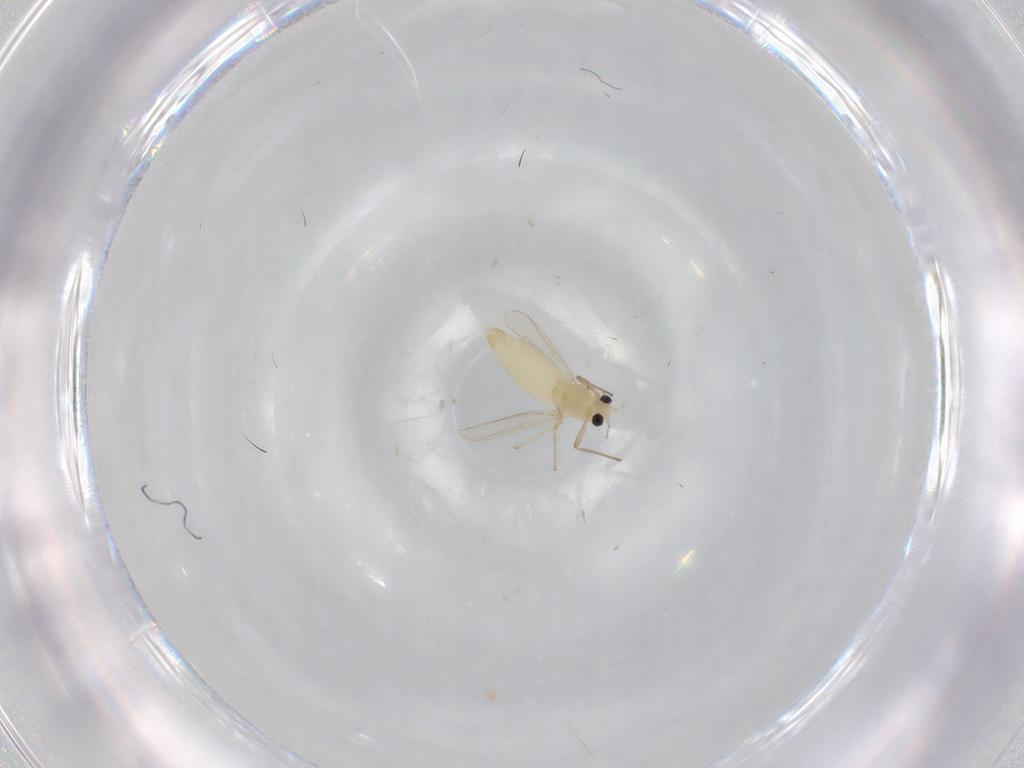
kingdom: Animalia
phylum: Arthropoda
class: Insecta
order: Diptera
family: Chironomidae
